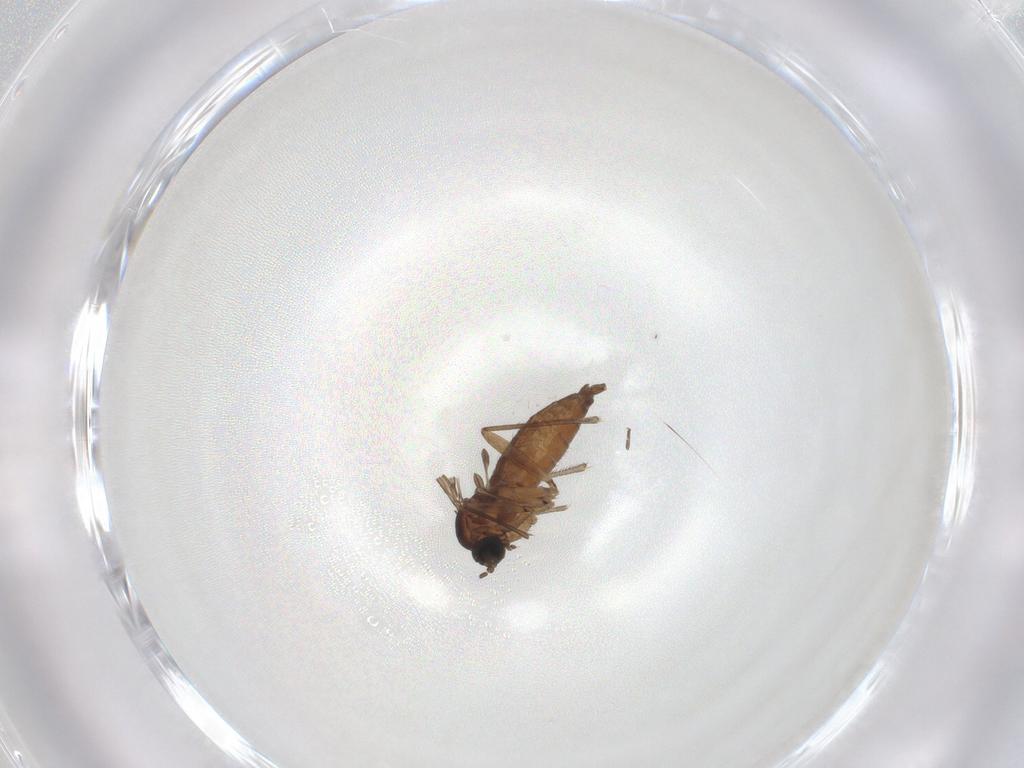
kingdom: Animalia
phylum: Arthropoda
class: Insecta
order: Diptera
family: Sciaridae
